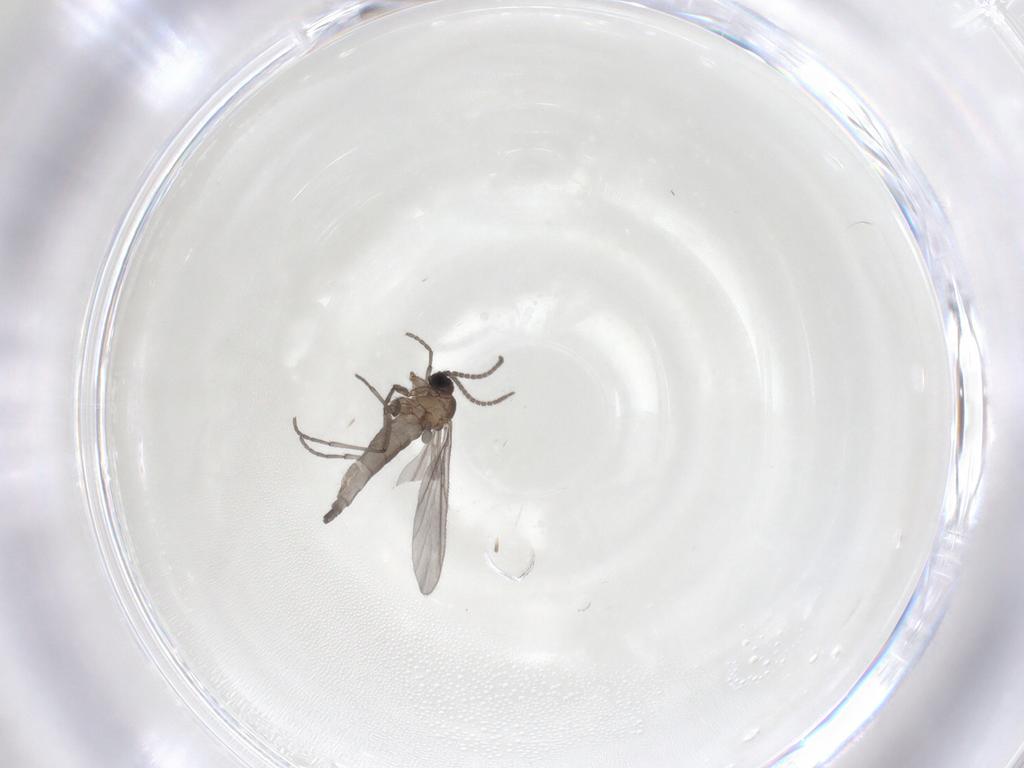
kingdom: Animalia
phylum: Arthropoda
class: Insecta
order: Diptera
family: Sciaridae
